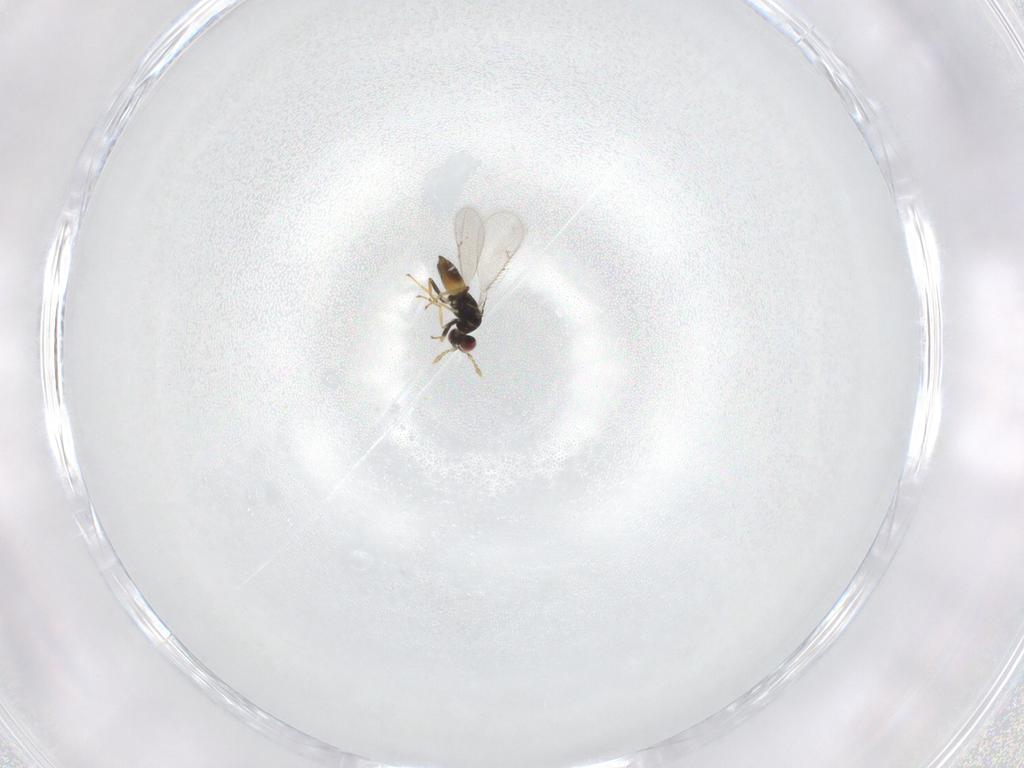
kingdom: Animalia
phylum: Arthropoda
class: Insecta
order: Hymenoptera
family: Eulophidae
